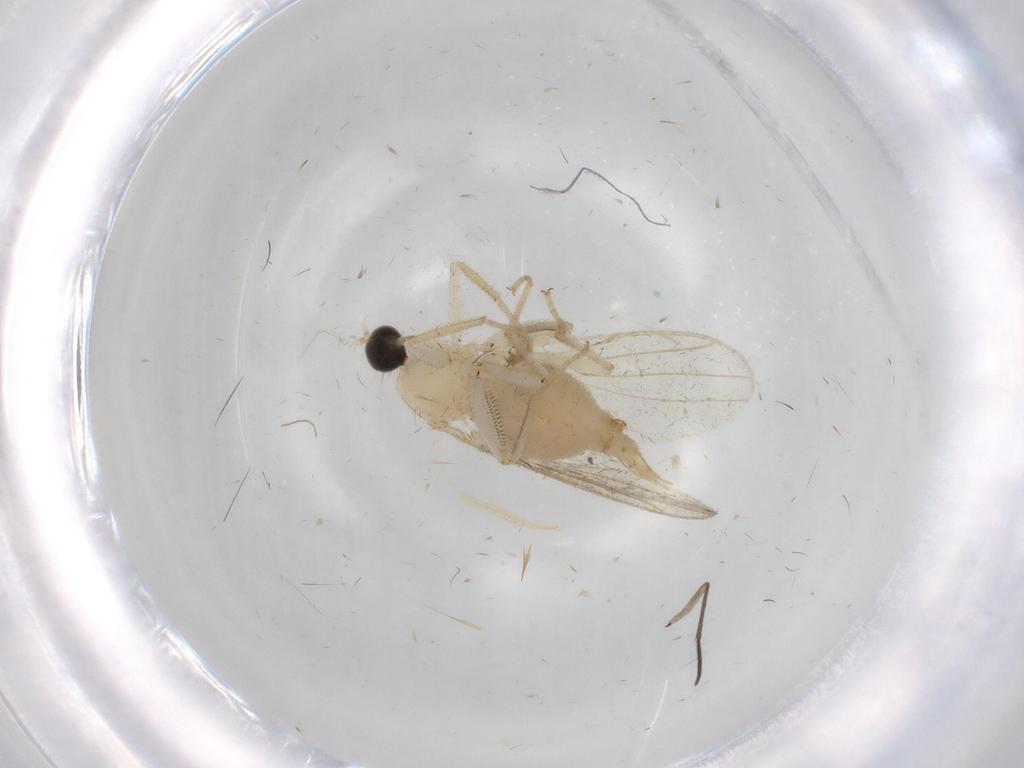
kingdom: Animalia
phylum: Arthropoda
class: Insecta
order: Diptera
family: Hybotidae
